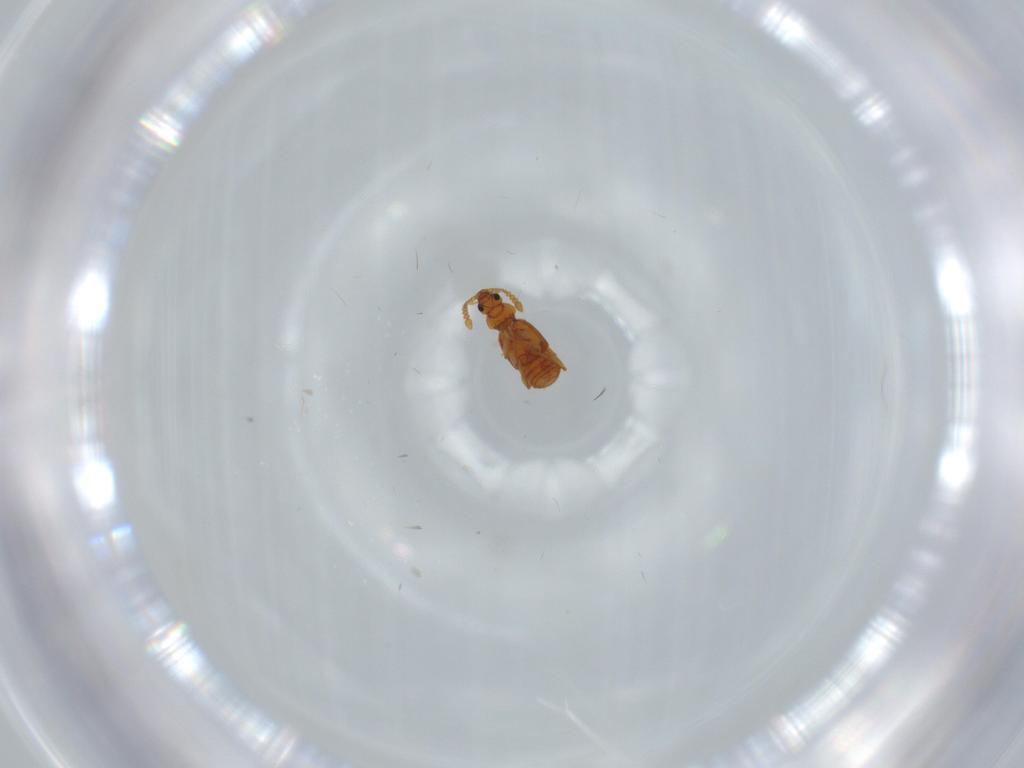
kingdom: Animalia
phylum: Arthropoda
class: Insecta
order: Coleoptera
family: Staphylinidae
